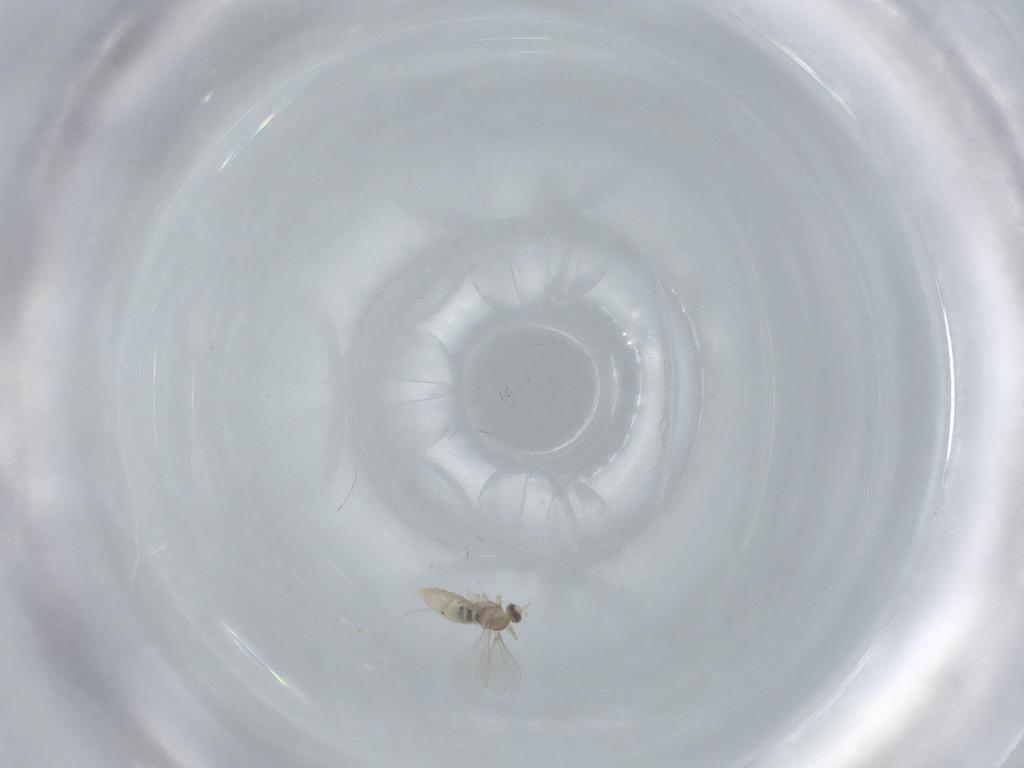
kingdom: Animalia
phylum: Arthropoda
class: Insecta
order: Diptera
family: Cecidomyiidae
